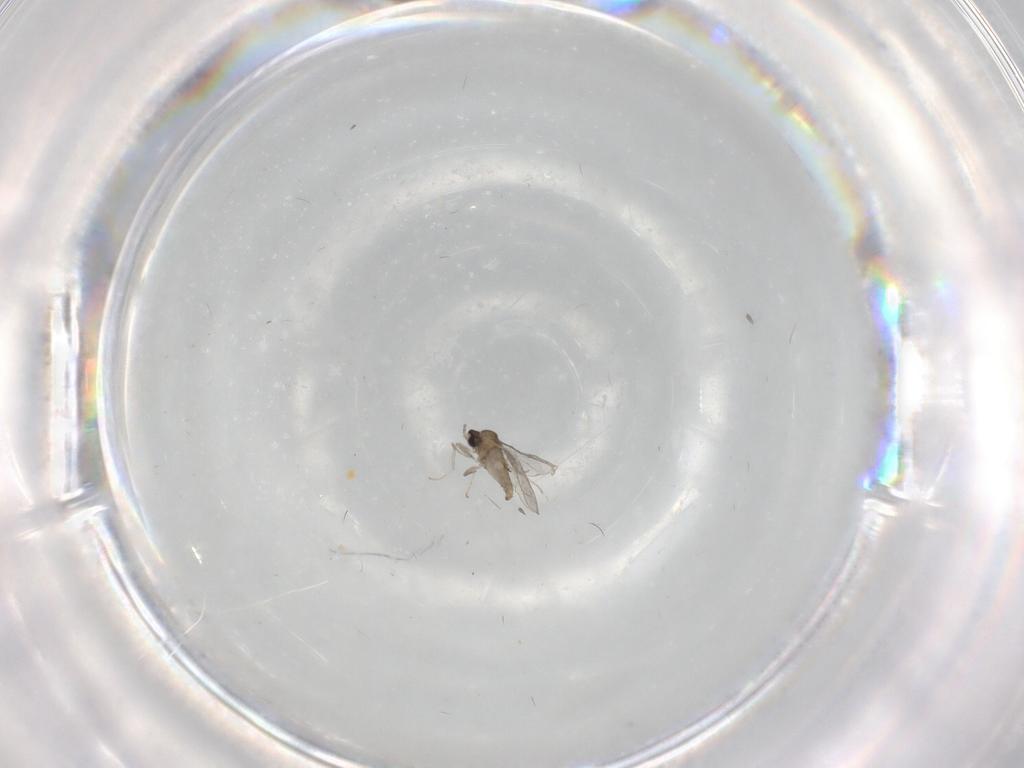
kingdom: Animalia
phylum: Arthropoda
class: Insecta
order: Diptera
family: Cecidomyiidae
